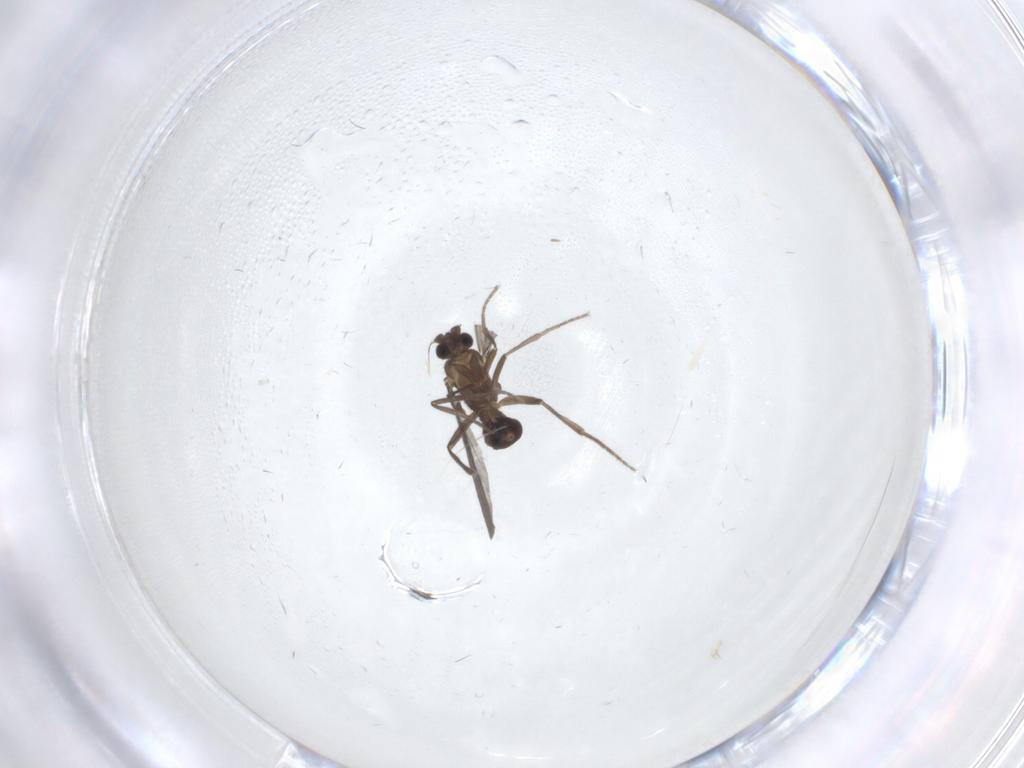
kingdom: Animalia
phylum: Arthropoda
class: Insecta
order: Diptera
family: Phoridae
